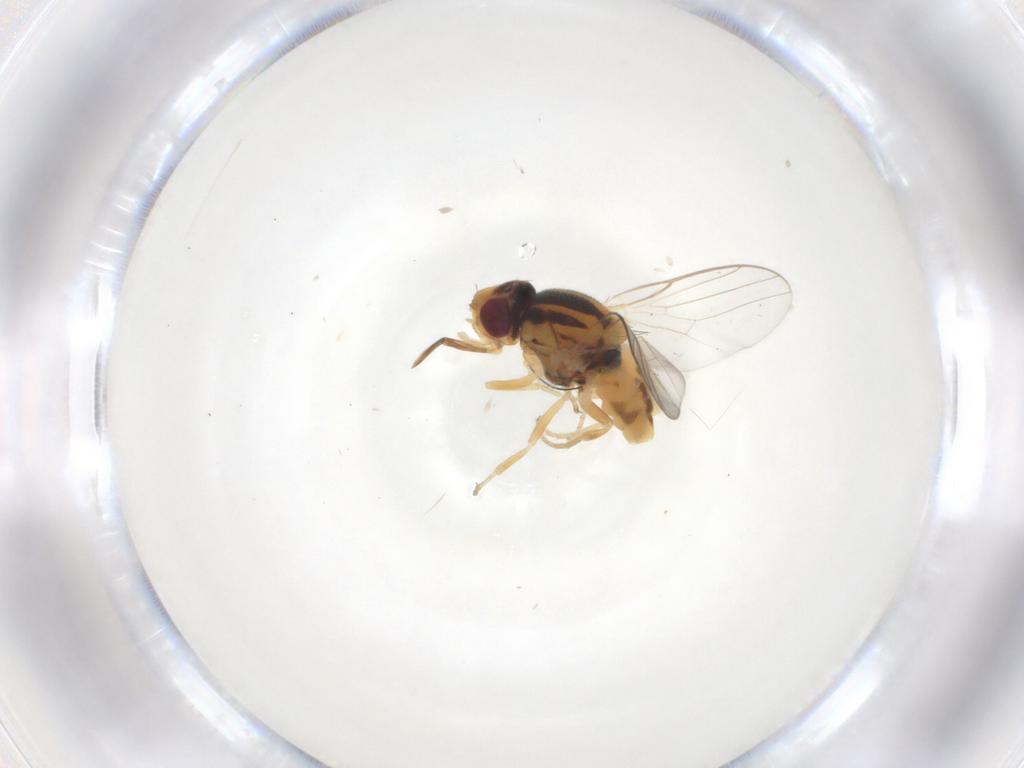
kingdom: Animalia
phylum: Arthropoda
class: Insecta
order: Diptera
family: Chloropidae
